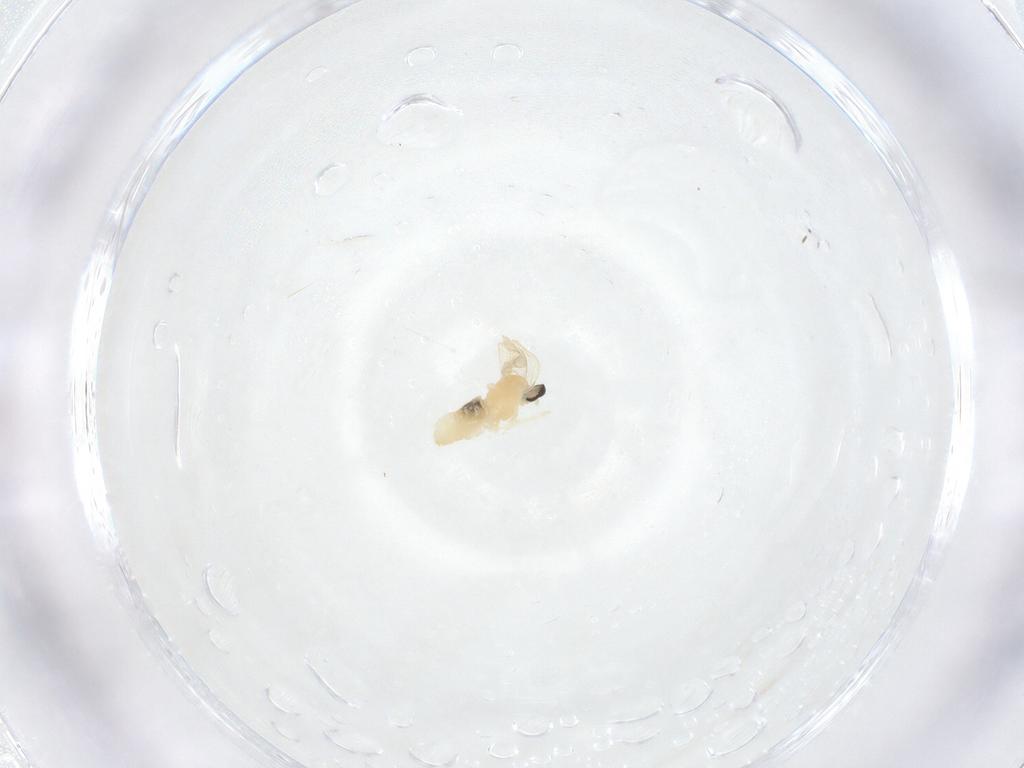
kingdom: Animalia
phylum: Arthropoda
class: Insecta
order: Diptera
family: Cecidomyiidae
